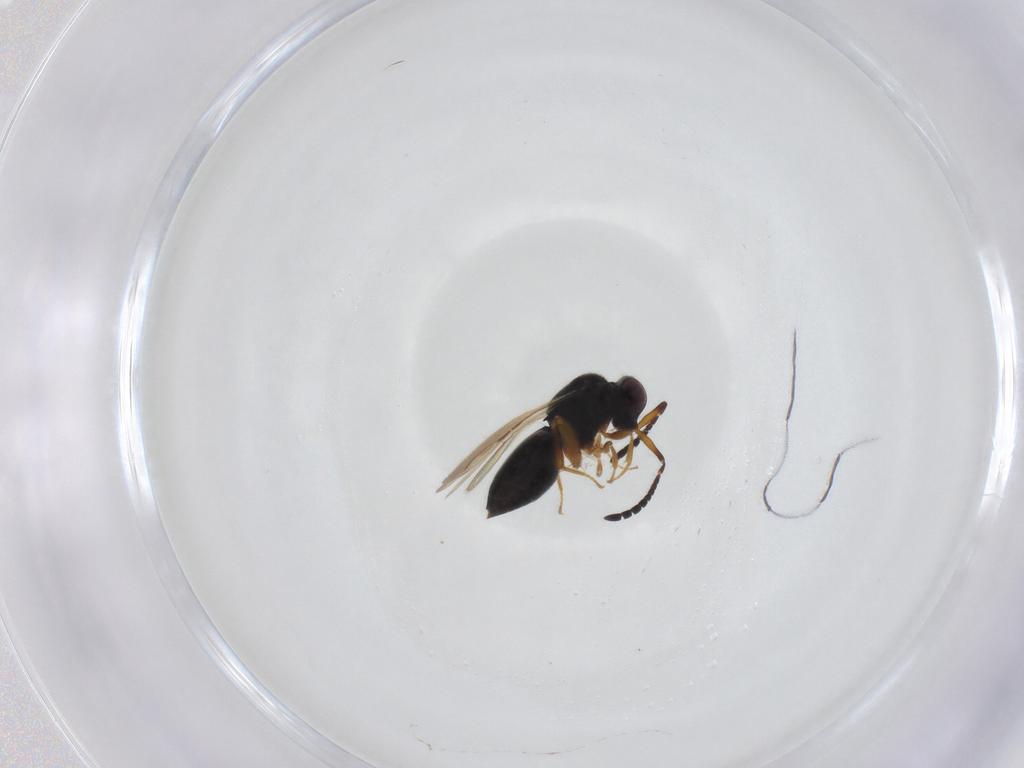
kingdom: Animalia
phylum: Arthropoda
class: Insecta
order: Hymenoptera
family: Ceraphronidae
